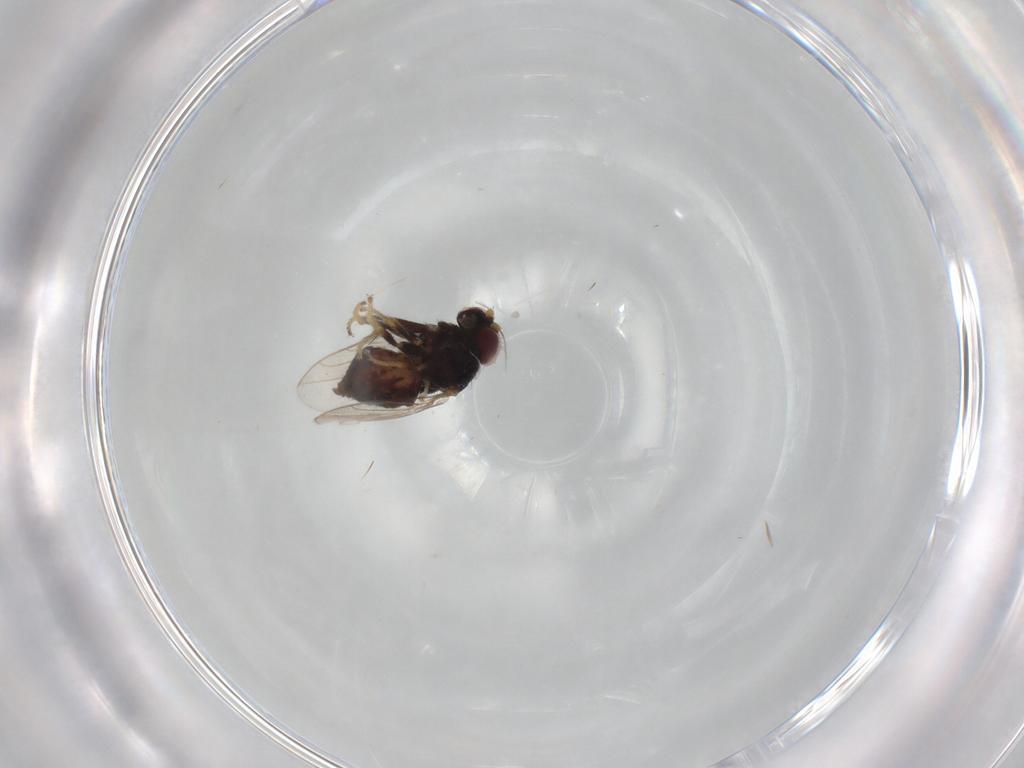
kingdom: Animalia
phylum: Arthropoda
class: Insecta
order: Diptera
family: Chloropidae
